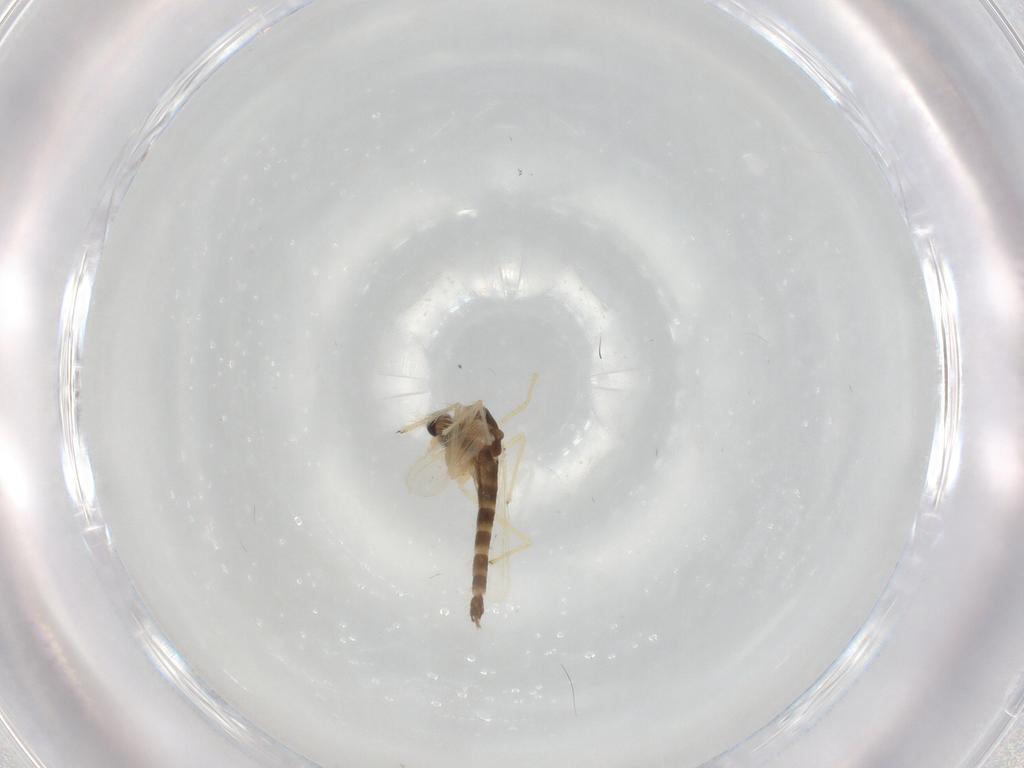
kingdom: Animalia
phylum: Arthropoda
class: Insecta
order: Diptera
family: Chironomidae
